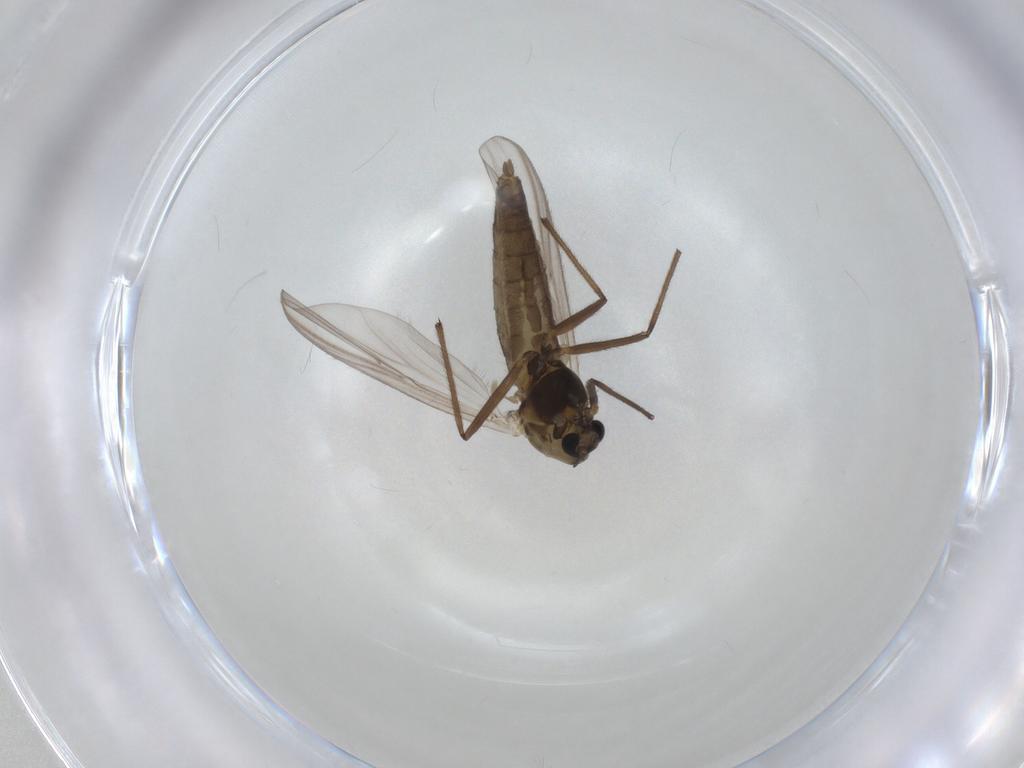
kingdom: Animalia
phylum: Arthropoda
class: Insecta
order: Diptera
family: Chironomidae
